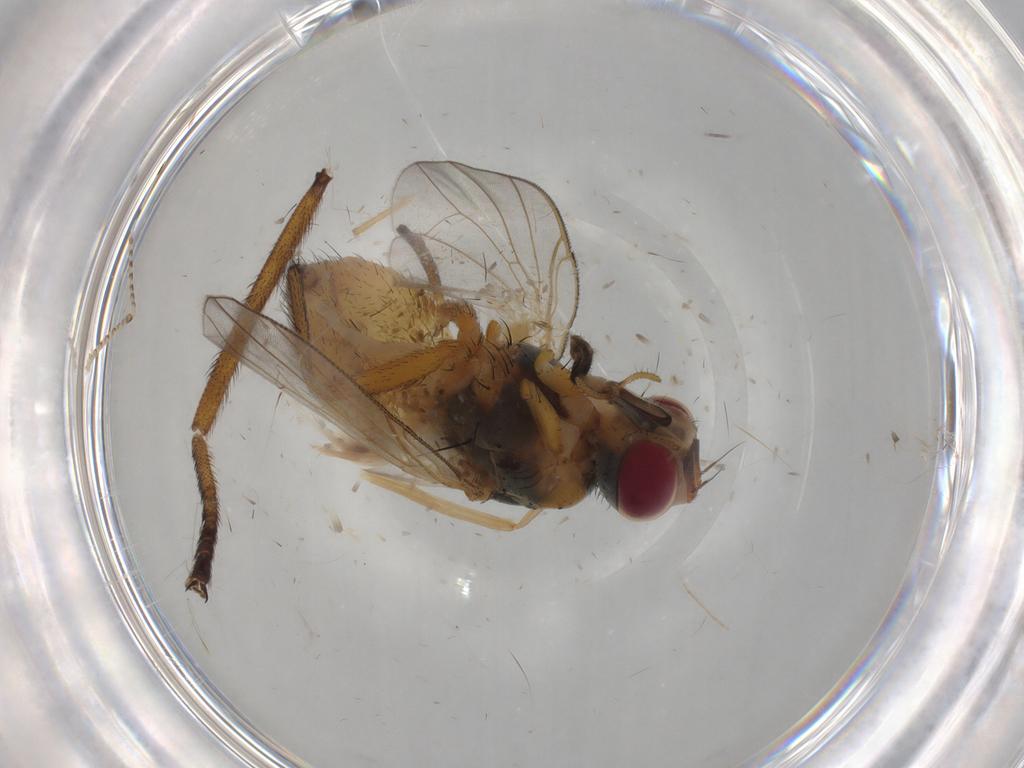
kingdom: Animalia
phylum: Arthropoda
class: Insecta
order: Diptera
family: Muscidae
